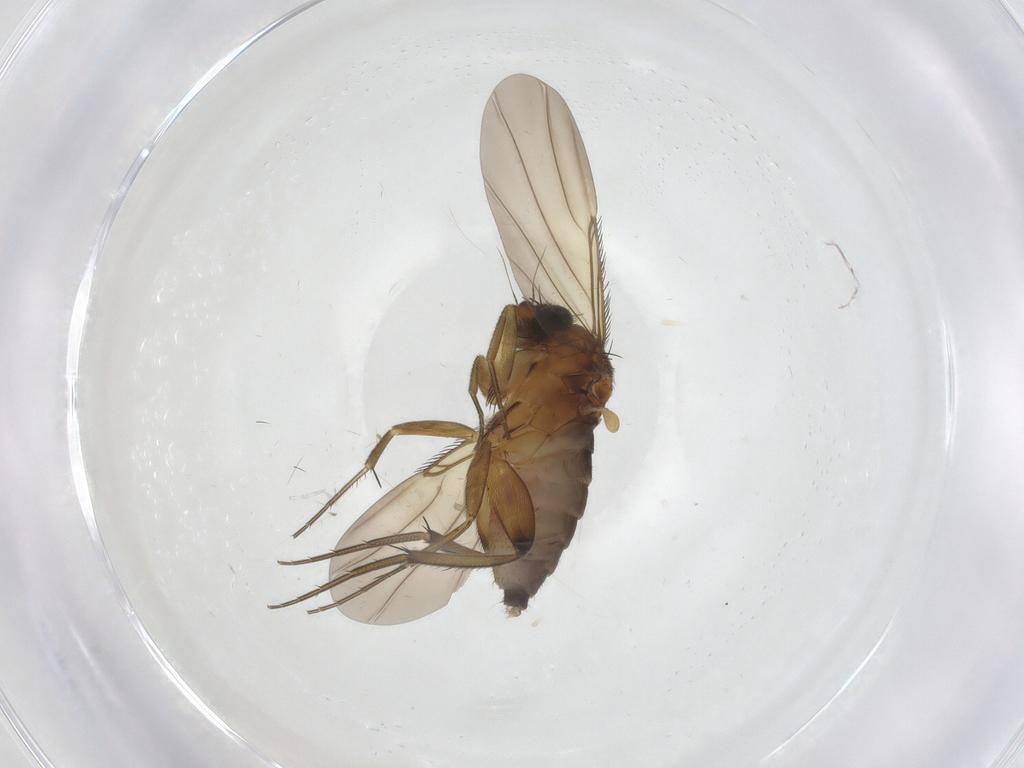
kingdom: Animalia
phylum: Arthropoda
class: Insecta
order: Diptera
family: Phoridae
